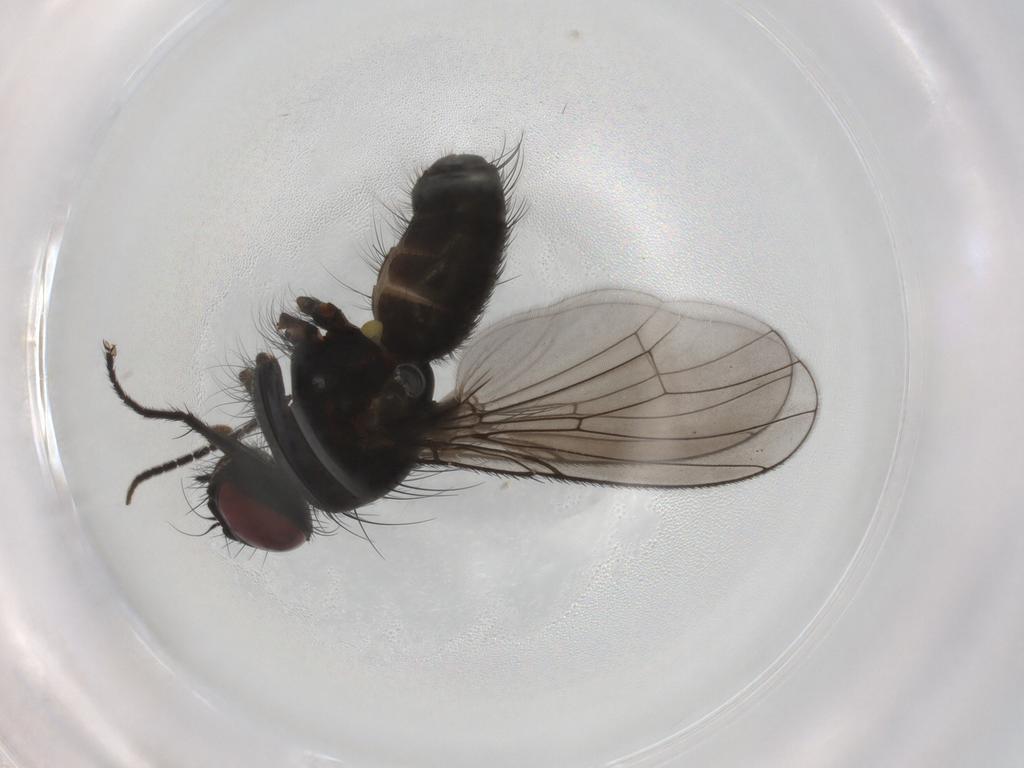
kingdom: Animalia
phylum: Arthropoda
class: Insecta
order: Diptera
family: Muscidae
